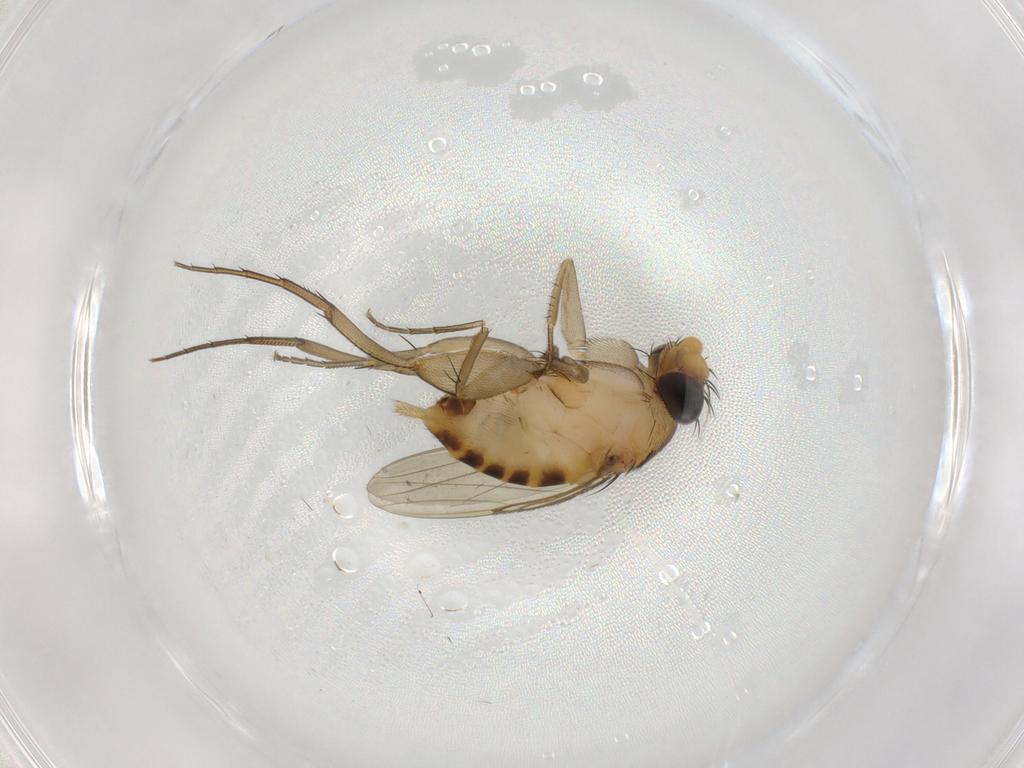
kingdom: Animalia
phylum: Arthropoda
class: Insecta
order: Diptera
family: Phoridae
